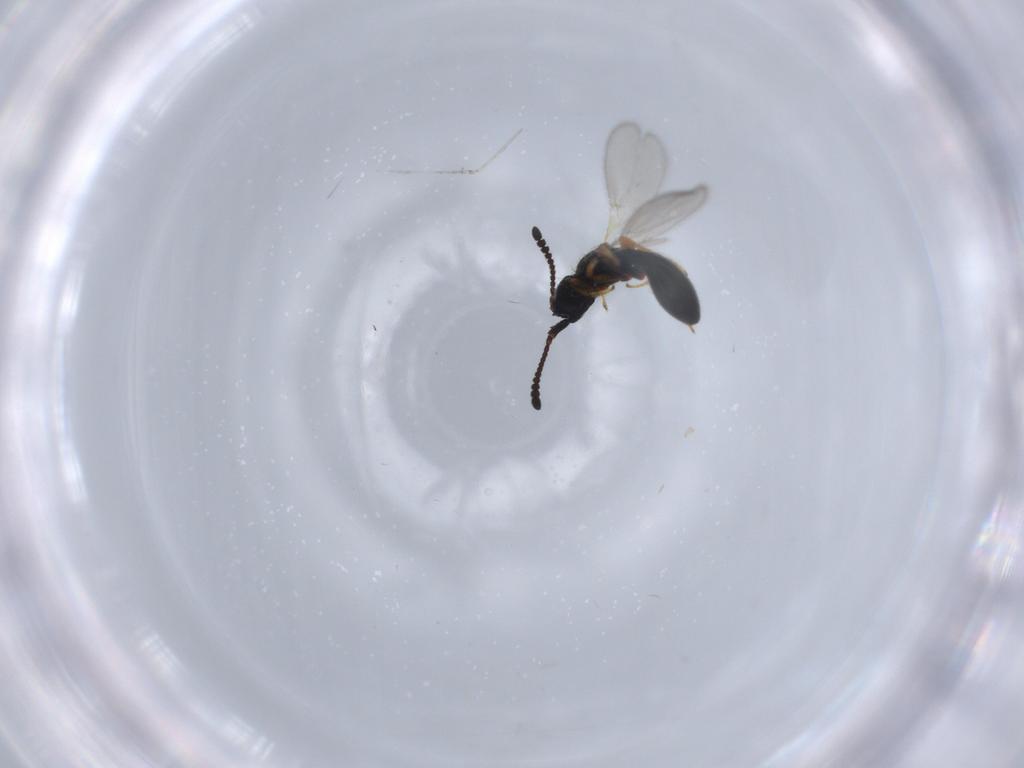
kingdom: Animalia
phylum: Arthropoda
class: Insecta
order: Hymenoptera
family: Diapriidae
